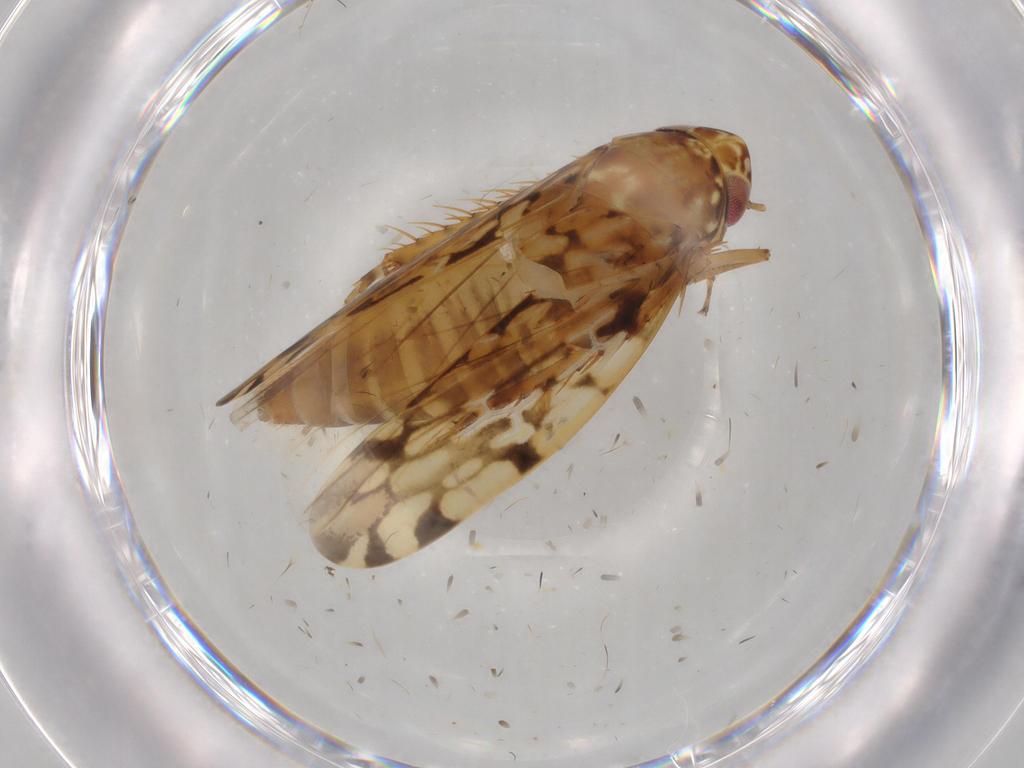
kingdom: Animalia
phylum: Arthropoda
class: Insecta
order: Hemiptera
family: Cicadellidae
